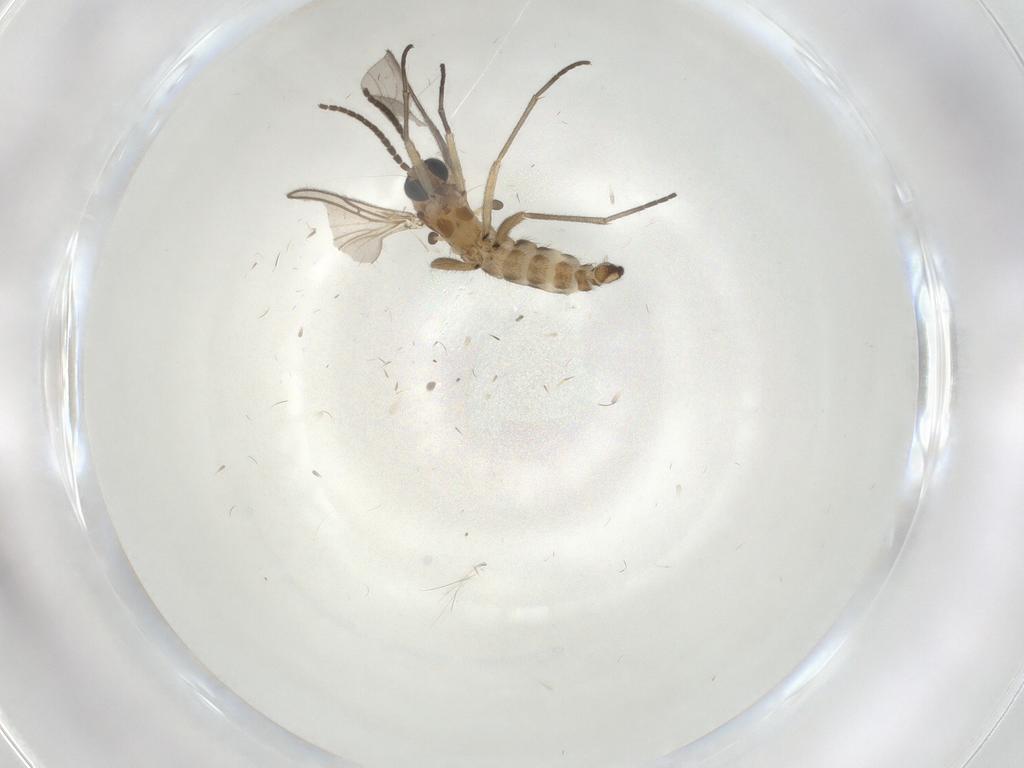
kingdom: Animalia
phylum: Arthropoda
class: Insecta
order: Diptera
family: Sciaridae
